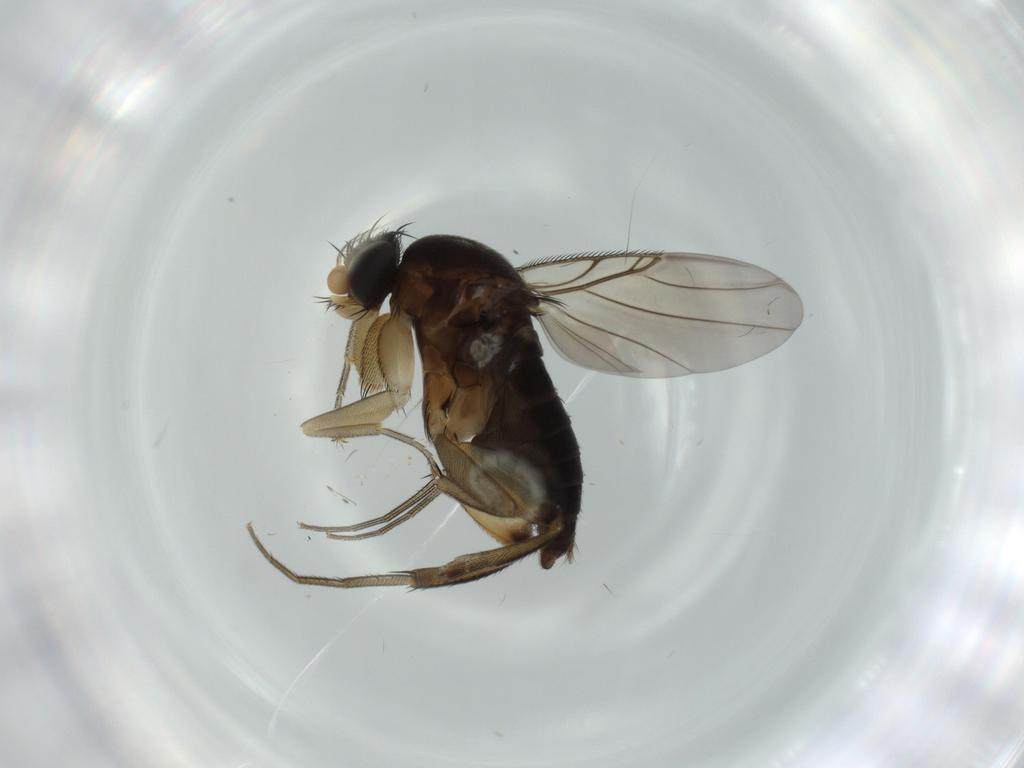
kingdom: Animalia
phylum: Arthropoda
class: Insecta
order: Diptera
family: Phoridae
